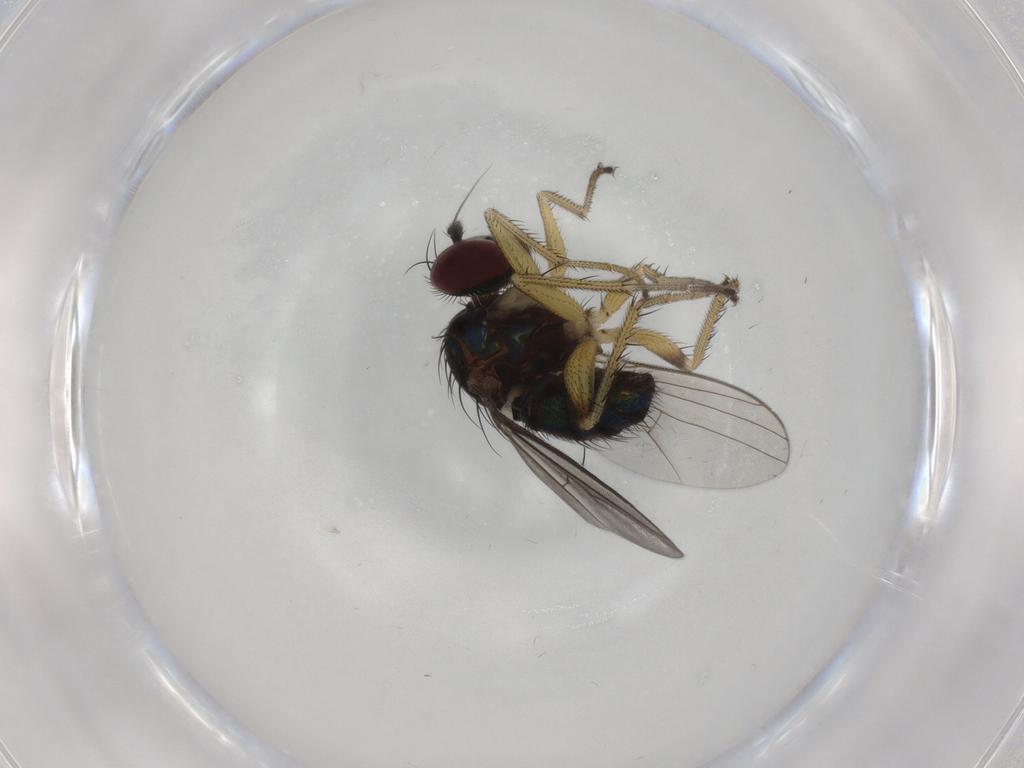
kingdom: Animalia
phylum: Arthropoda
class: Insecta
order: Diptera
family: Dolichopodidae
